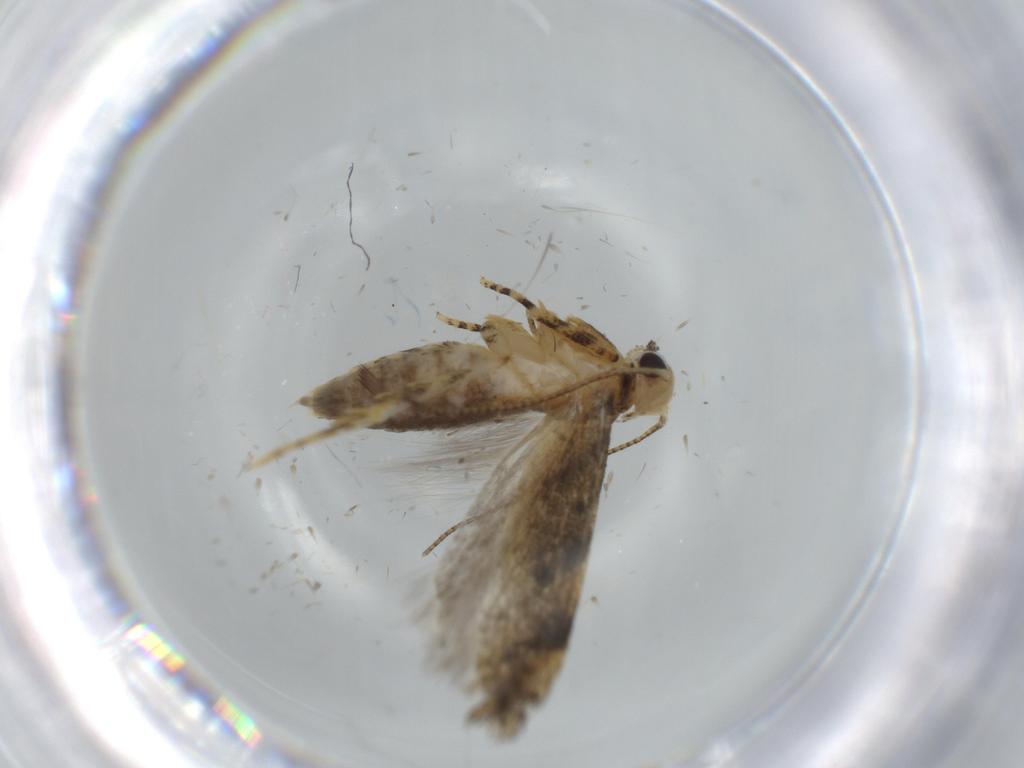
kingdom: Animalia
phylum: Arthropoda
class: Insecta
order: Lepidoptera
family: Gelechiidae
